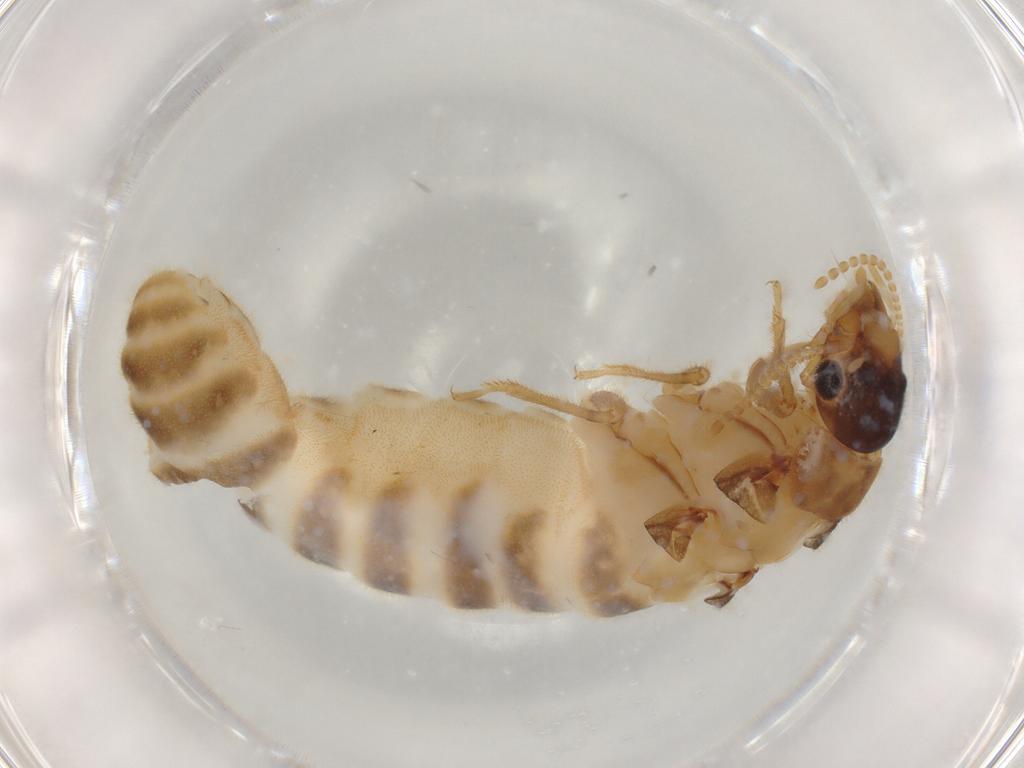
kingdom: Animalia
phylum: Arthropoda
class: Insecta
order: Blattodea
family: Termitidae
